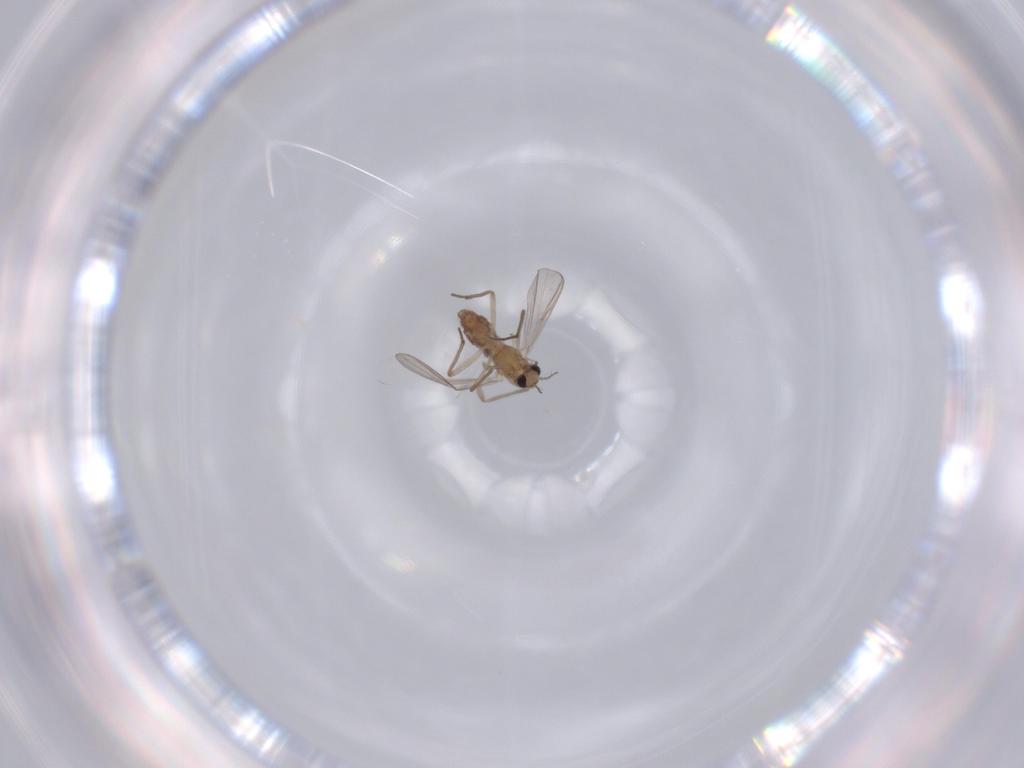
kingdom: Animalia
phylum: Arthropoda
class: Insecta
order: Diptera
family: Chironomidae
